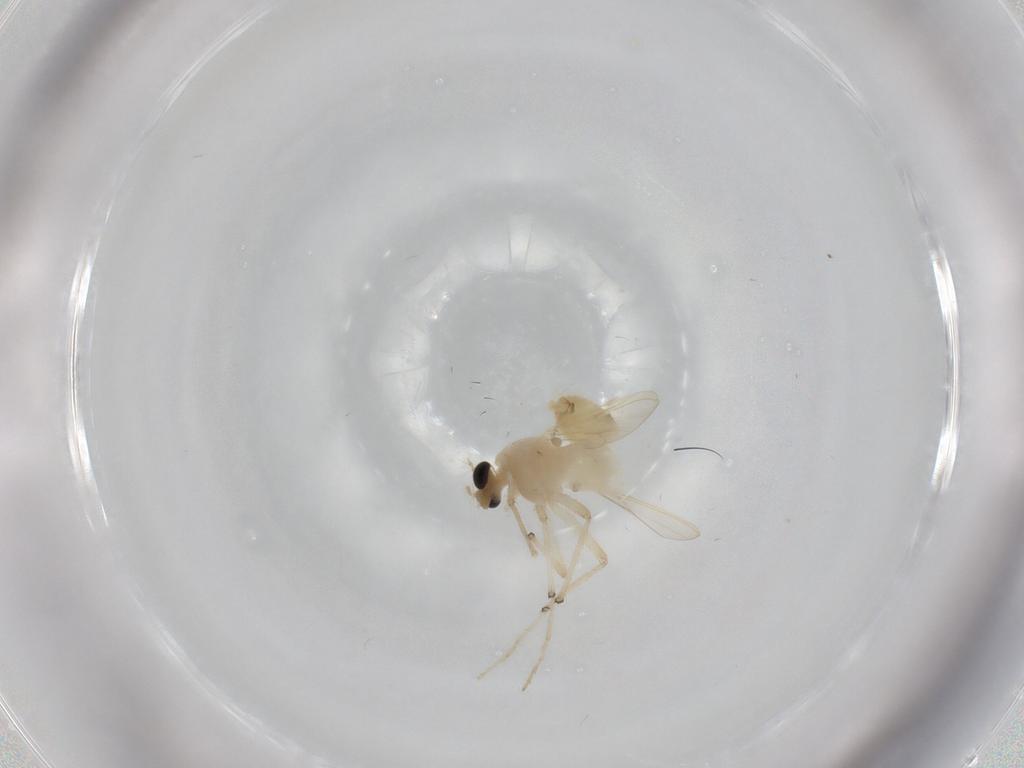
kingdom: Animalia
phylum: Arthropoda
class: Insecta
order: Diptera
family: Chironomidae
